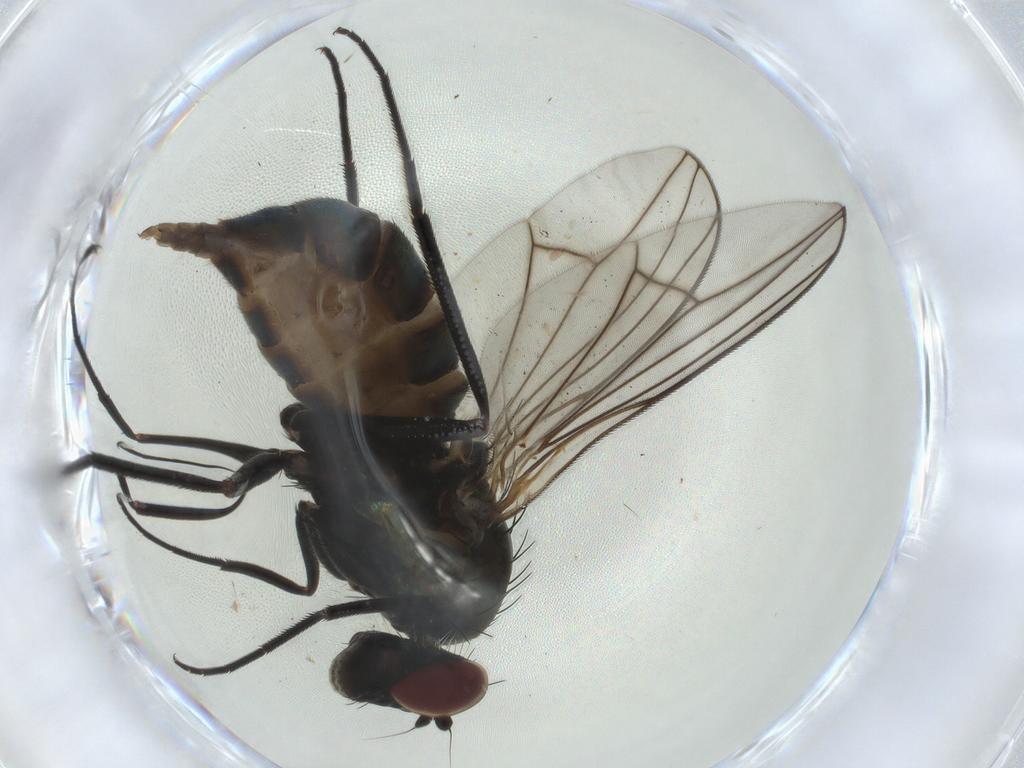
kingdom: Animalia
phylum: Arthropoda
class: Insecta
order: Diptera
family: Dolichopodidae
